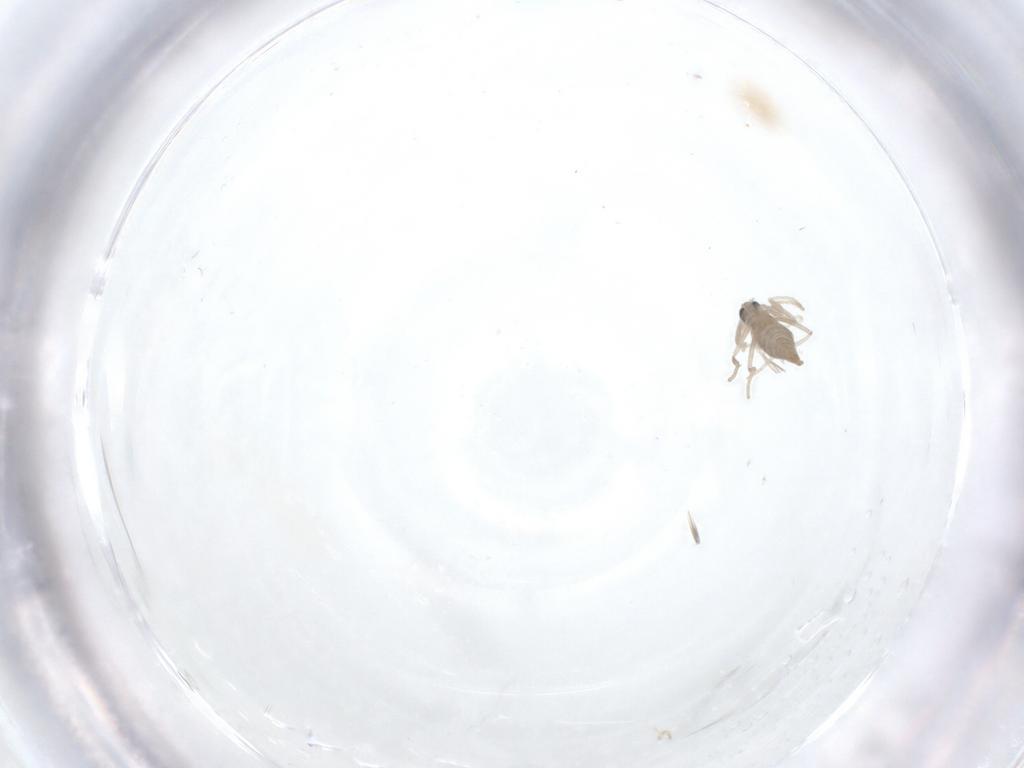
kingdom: Animalia
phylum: Arthropoda
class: Insecta
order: Diptera
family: Cecidomyiidae
